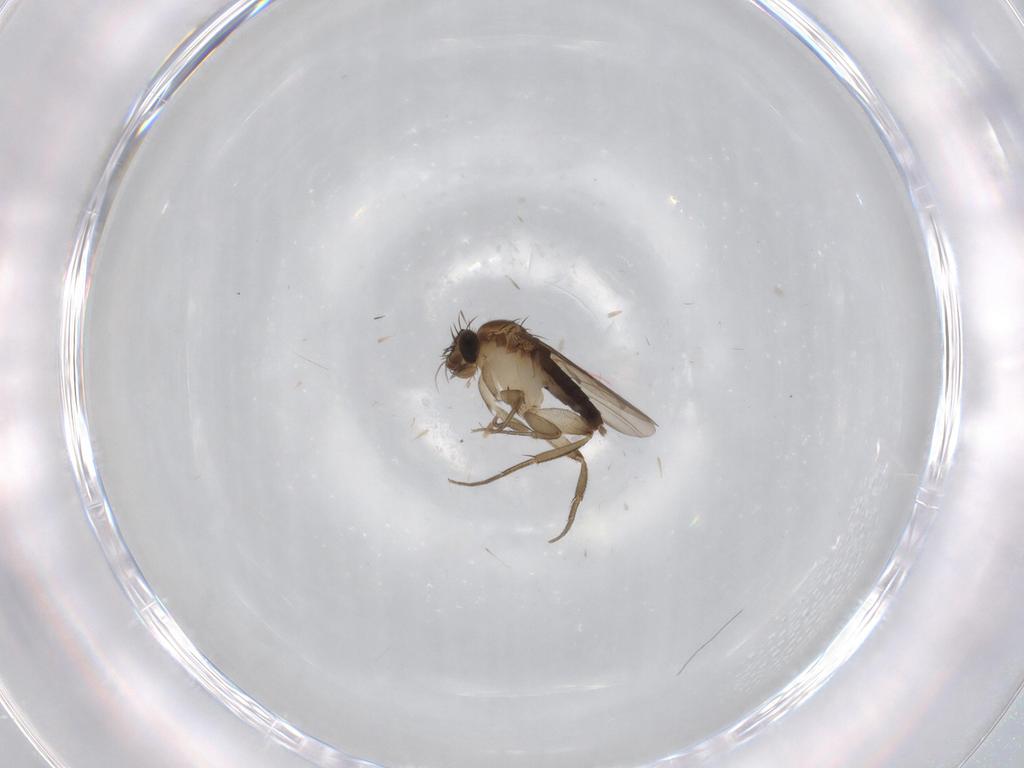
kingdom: Animalia
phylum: Arthropoda
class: Insecta
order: Diptera
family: Phoridae
